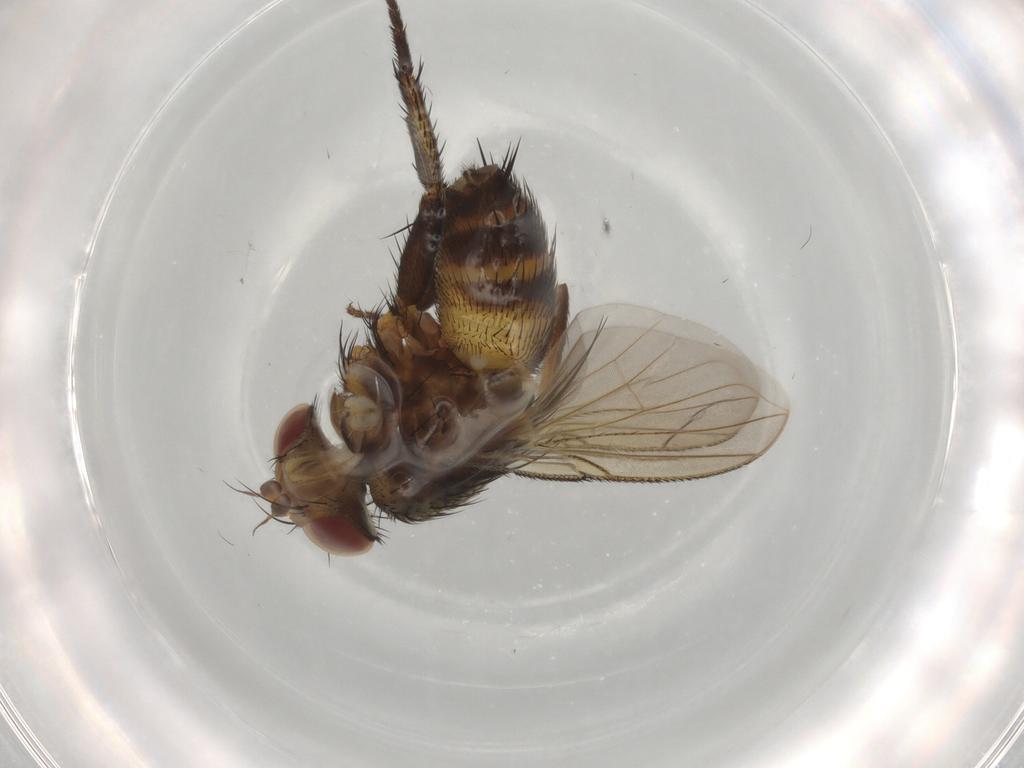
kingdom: Animalia
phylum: Arthropoda
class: Insecta
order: Diptera
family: Tachinidae
